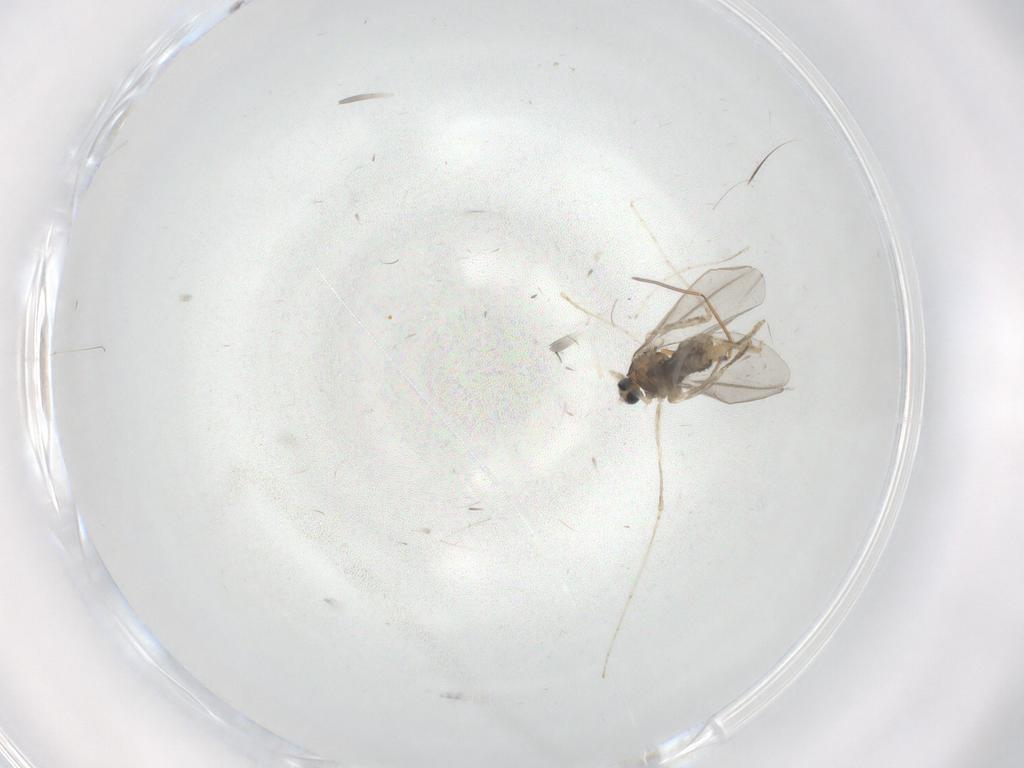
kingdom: Animalia
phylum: Arthropoda
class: Insecta
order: Diptera
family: Cecidomyiidae
